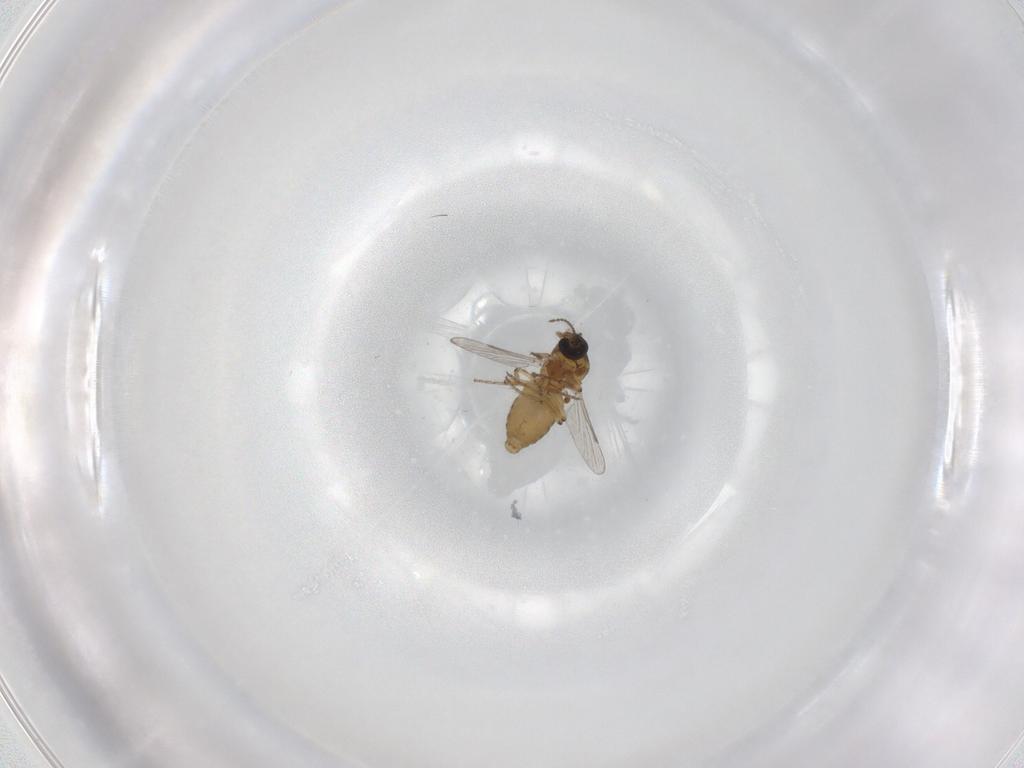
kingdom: Animalia
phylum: Arthropoda
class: Insecta
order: Diptera
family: Ceratopogonidae
